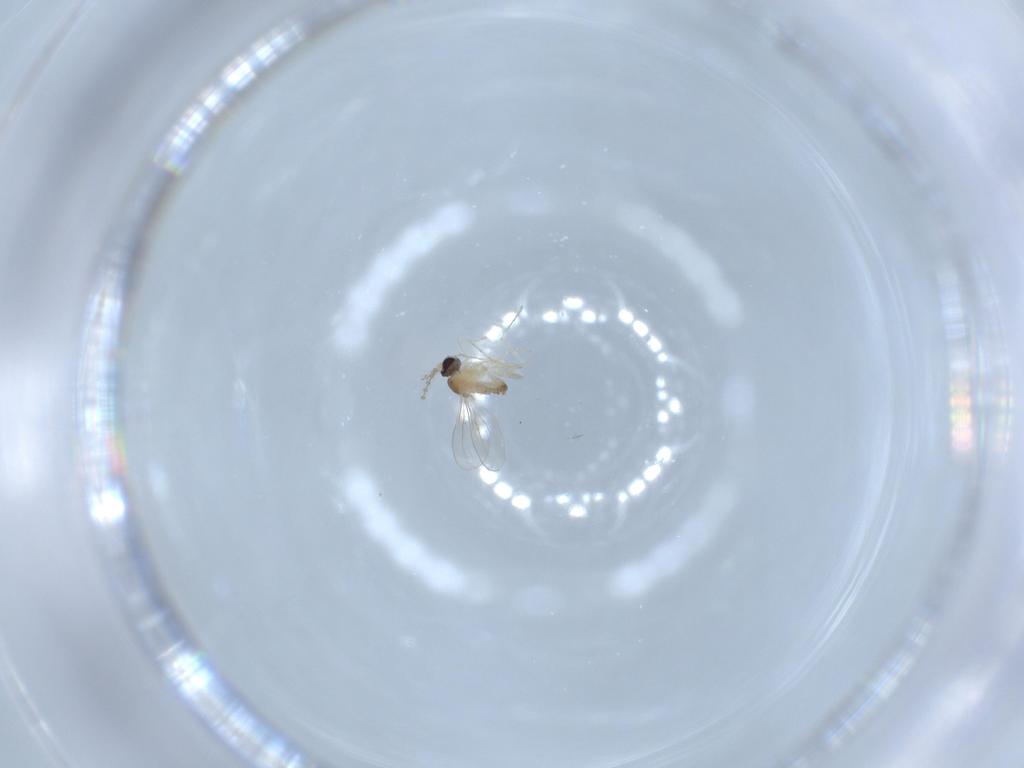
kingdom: Animalia
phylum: Arthropoda
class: Insecta
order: Diptera
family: Cecidomyiidae
